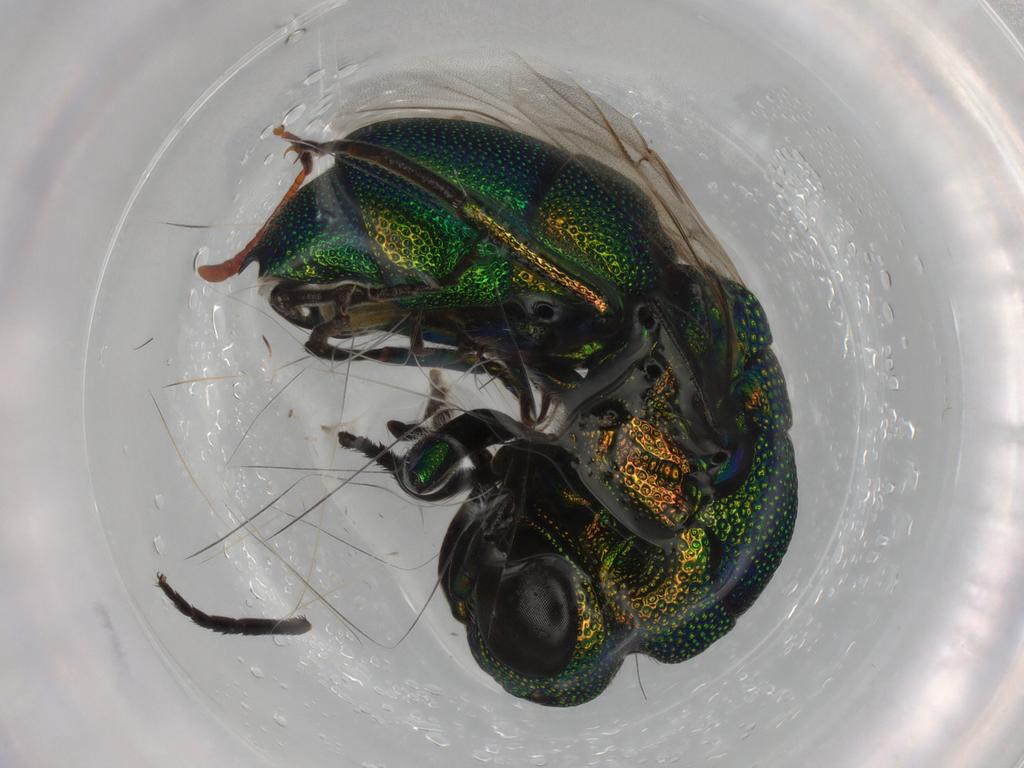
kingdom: Animalia
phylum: Arthropoda
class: Insecta
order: Hymenoptera
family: Chrysididae
